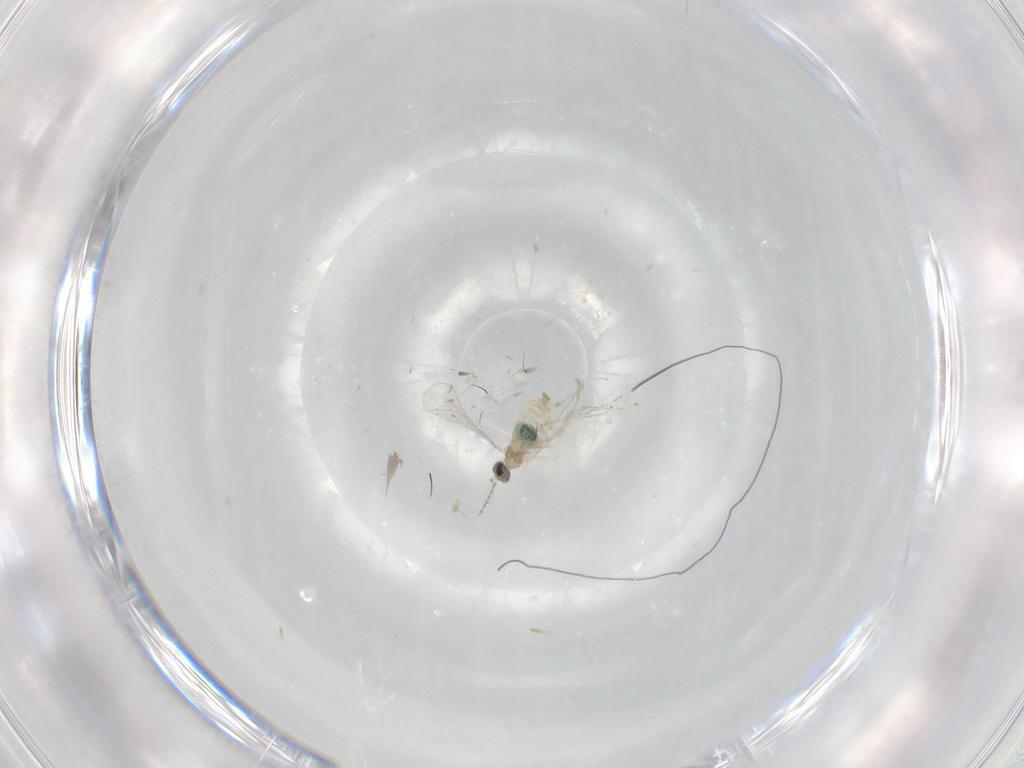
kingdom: Animalia
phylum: Arthropoda
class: Insecta
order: Diptera
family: Cecidomyiidae
